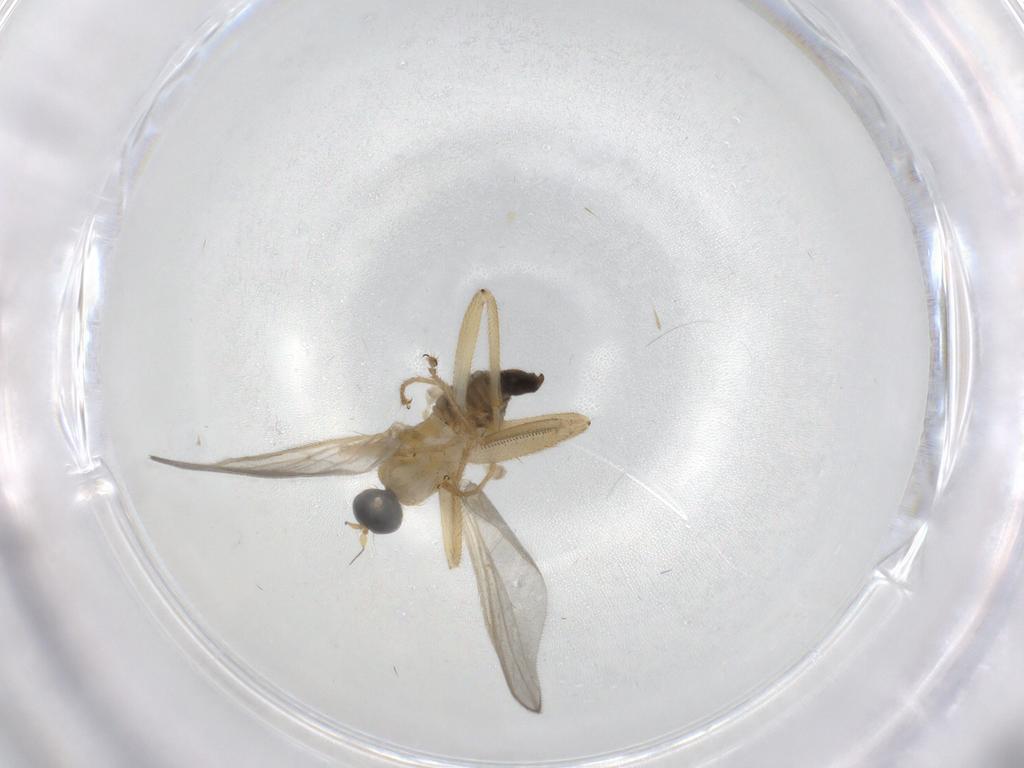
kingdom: Animalia
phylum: Arthropoda
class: Insecta
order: Diptera
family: Hybotidae
